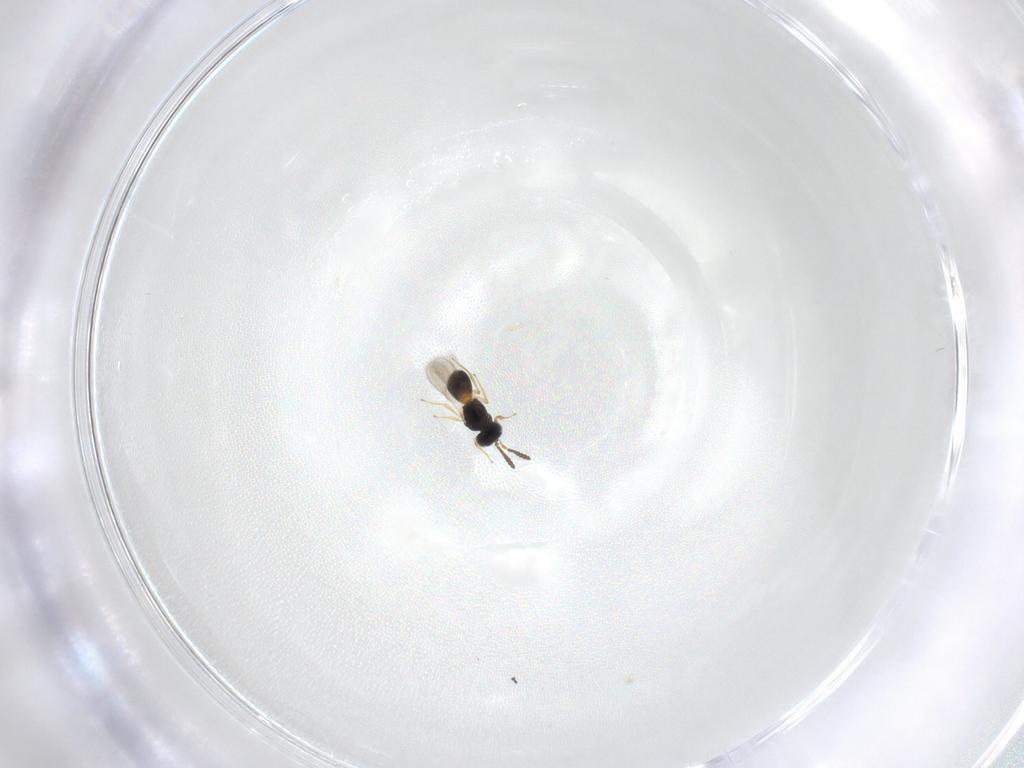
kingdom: Animalia
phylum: Arthropoda
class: Insecta
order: Hymenoptera
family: Scelionidae
